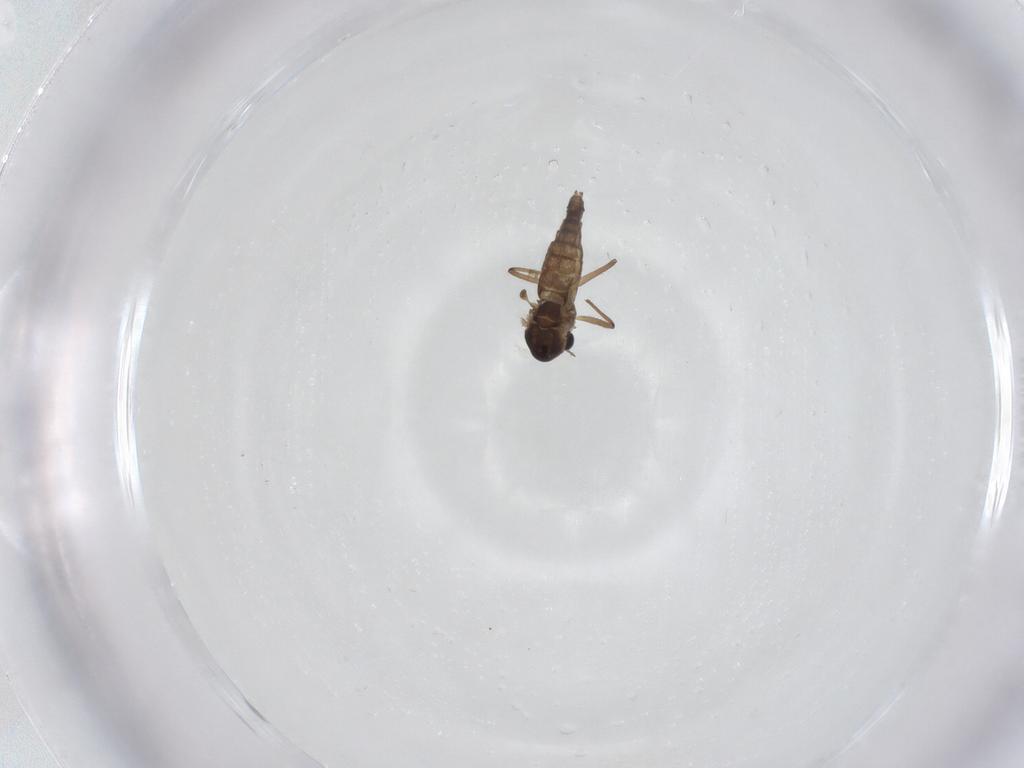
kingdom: Animalia
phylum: Arthropoda
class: Insecta
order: Diptera
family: Chironomidae
